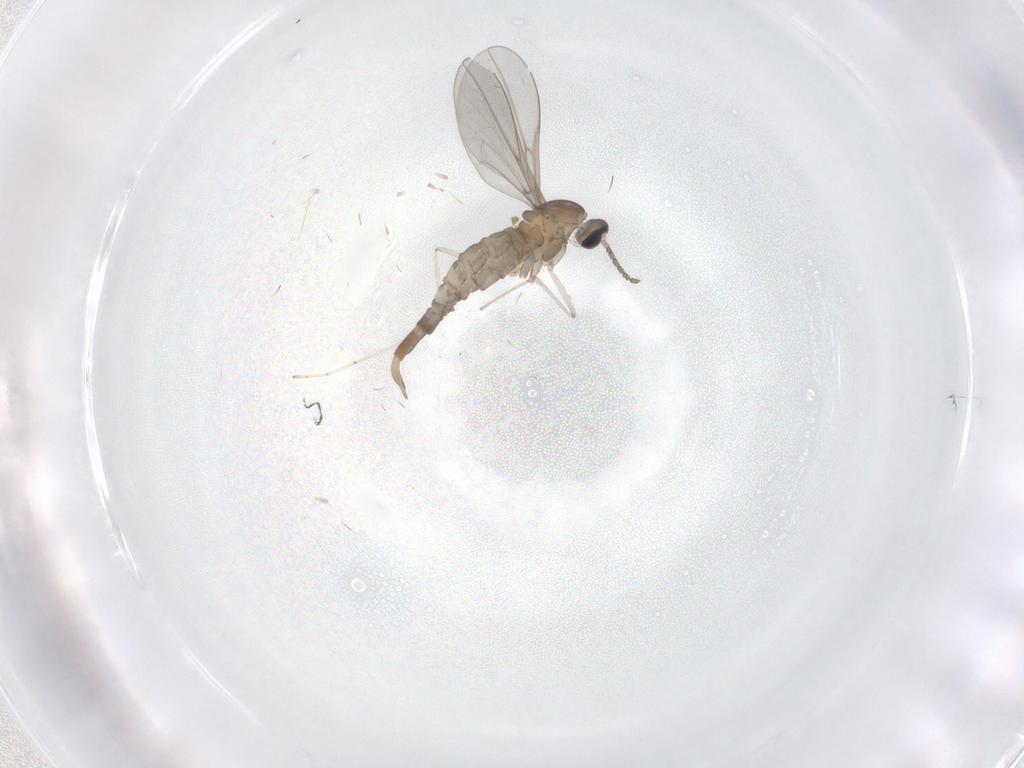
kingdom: Animalia
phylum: Arthropoda
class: Insecta
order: Diptera
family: Cecidomyiidae
